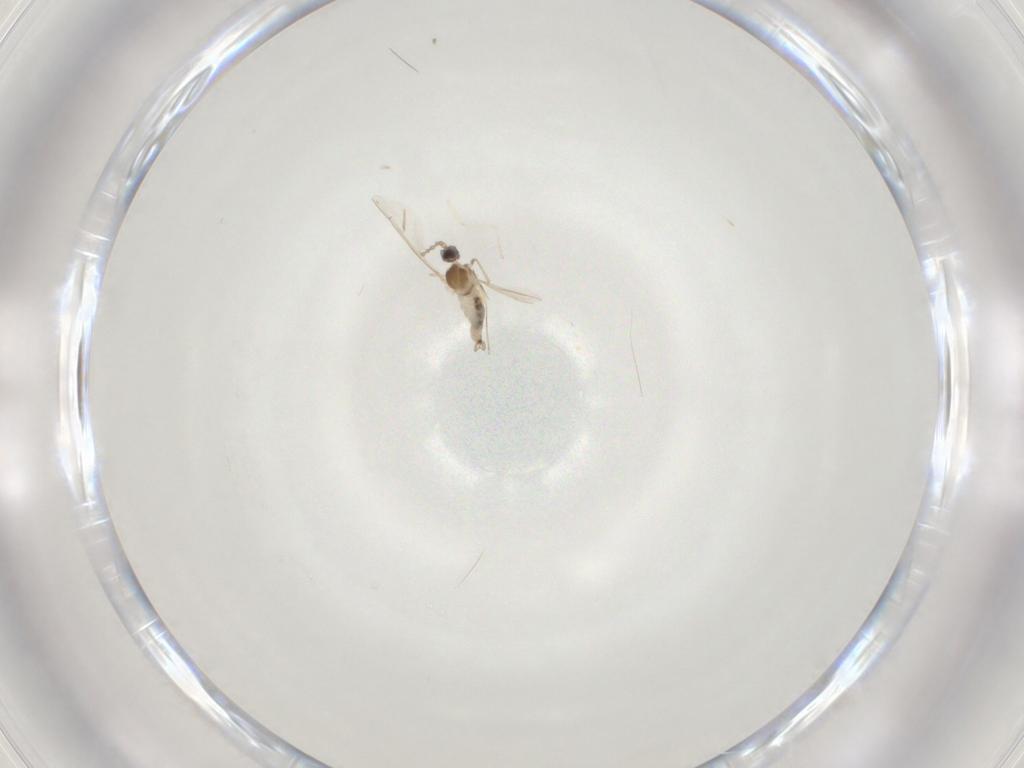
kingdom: Animalia
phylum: Arthropoda
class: Insecta
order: Diptera
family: Cecidomyiidae
